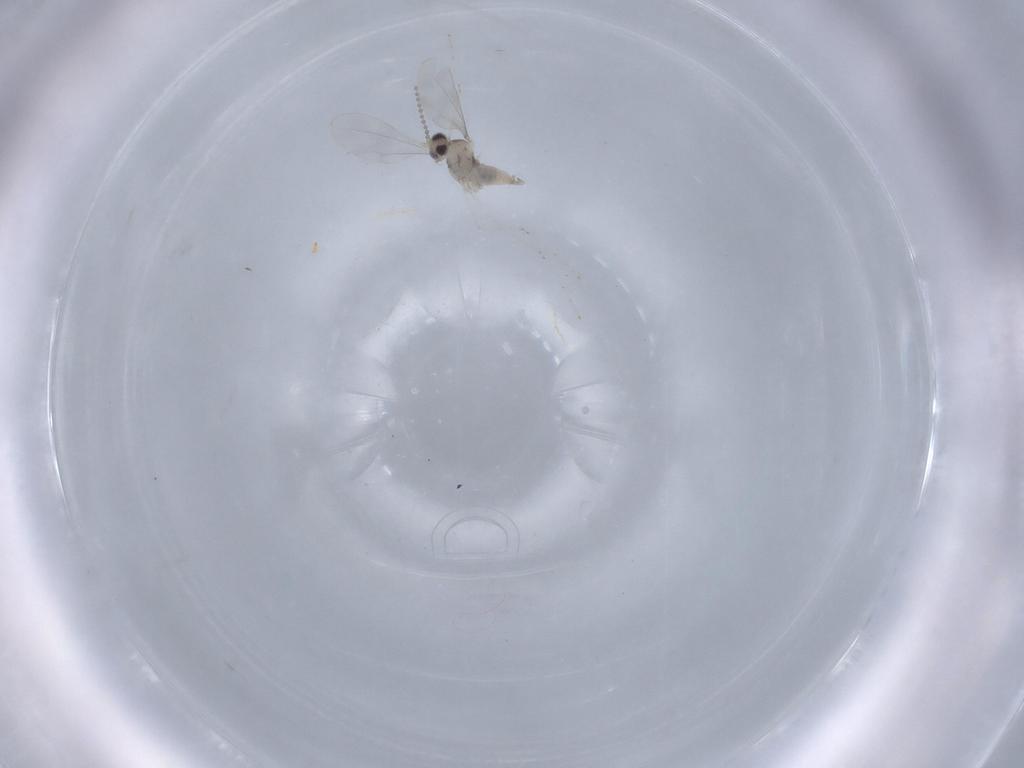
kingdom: Animalia
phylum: Arthropoda
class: Insecta
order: Diptera
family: Cecidomyiidae
